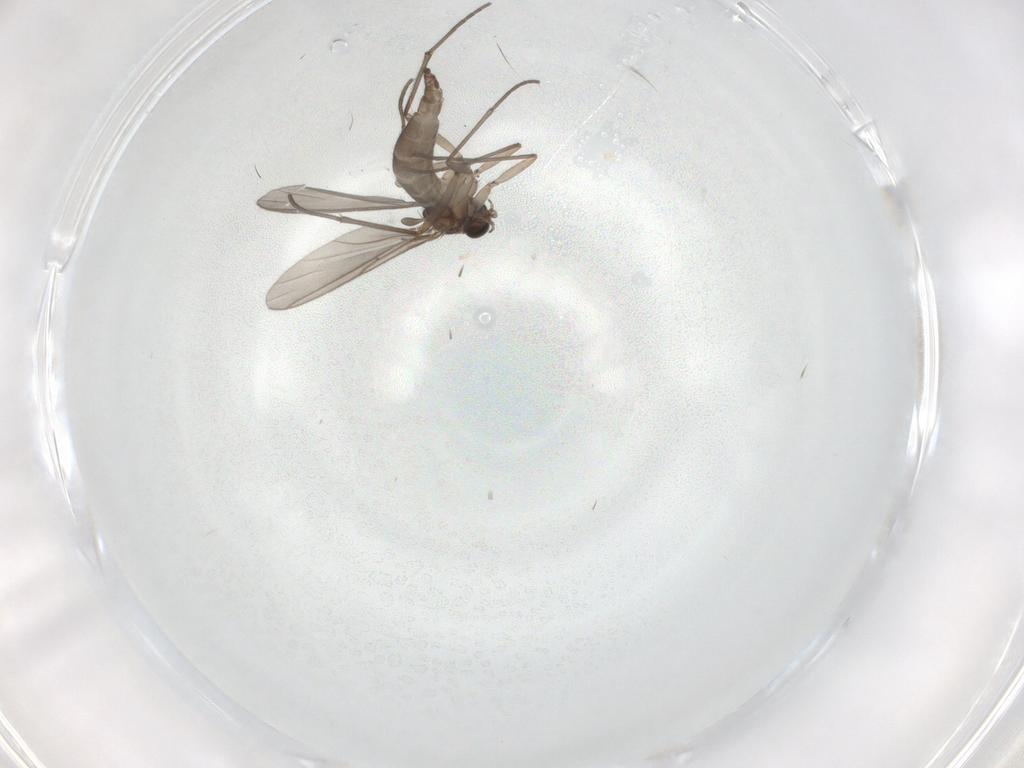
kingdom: Animalia
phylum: Arthropoda
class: Insecta
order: Diptera
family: Sciaridae
